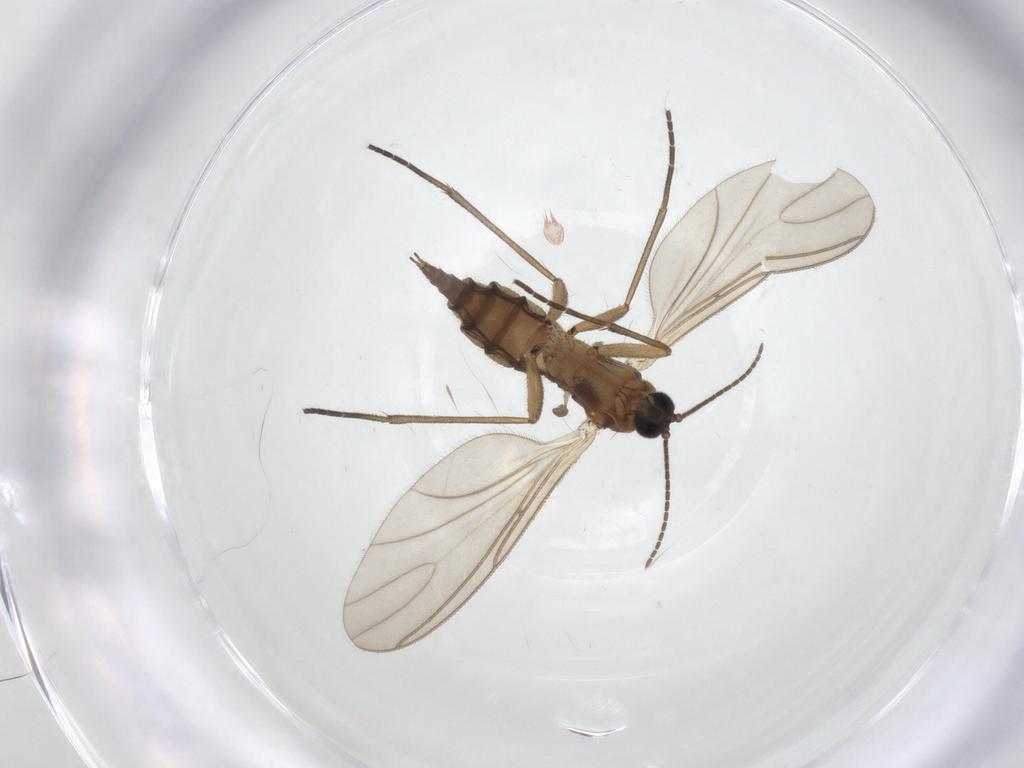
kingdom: Animalia
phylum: Arthropoda
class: Insecta
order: Diptera
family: Sciaridae
